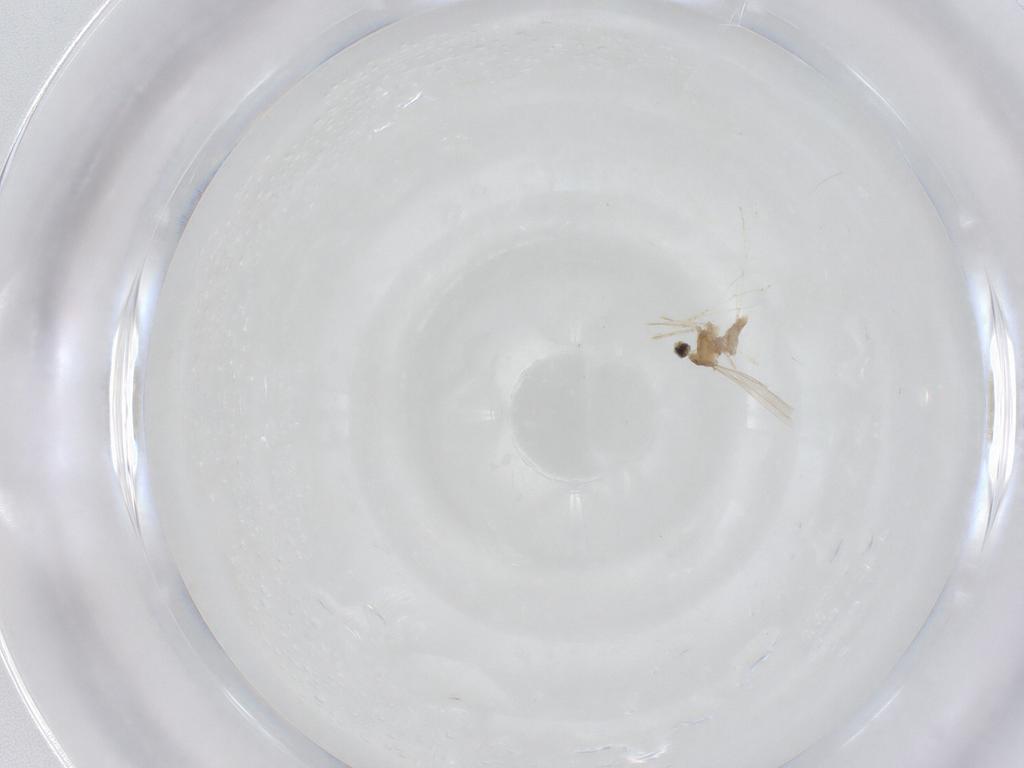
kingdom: Animalia
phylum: Arthropoda
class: Insecta
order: Diptera
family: Cecidomyiidae
